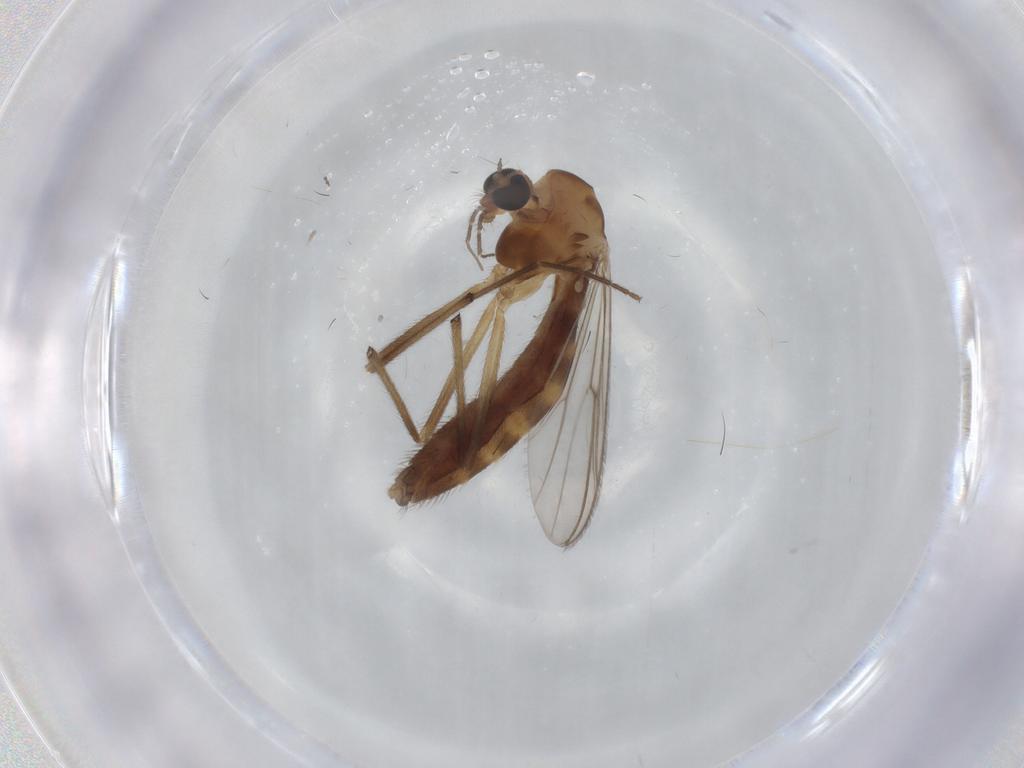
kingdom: Animalia
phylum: Arthropoda
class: Insecta
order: Diptera
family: Chironomidae
